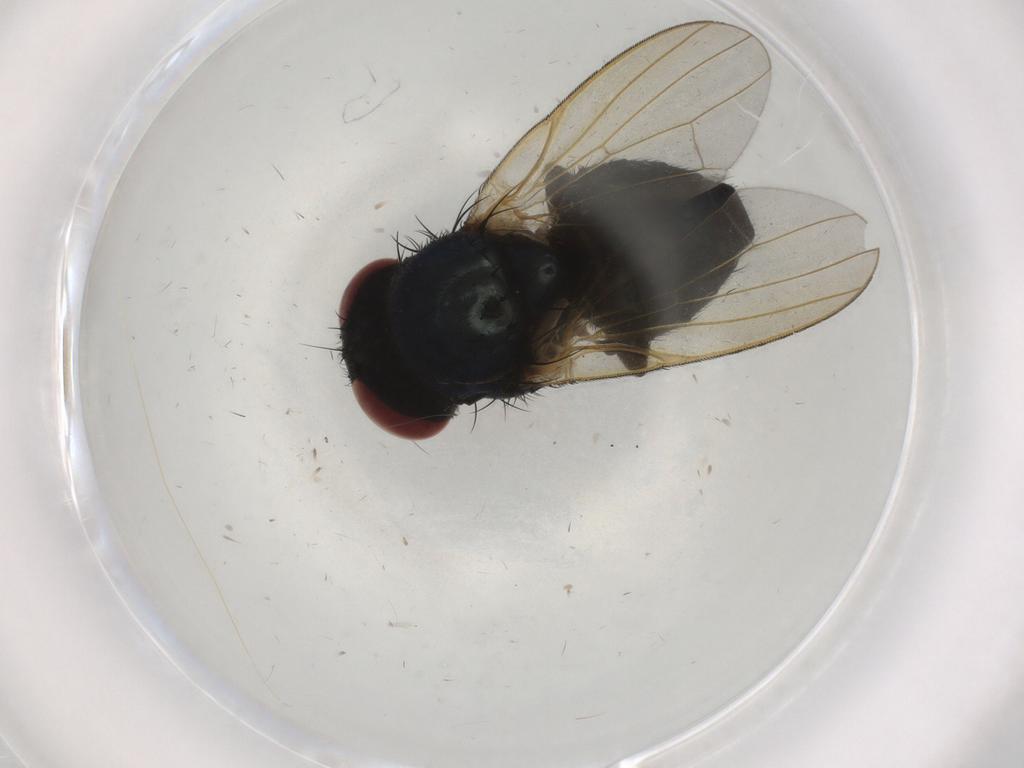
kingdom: Animalia
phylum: Arthropoda
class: Insecta
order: Diptera
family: Lonchaeidae
